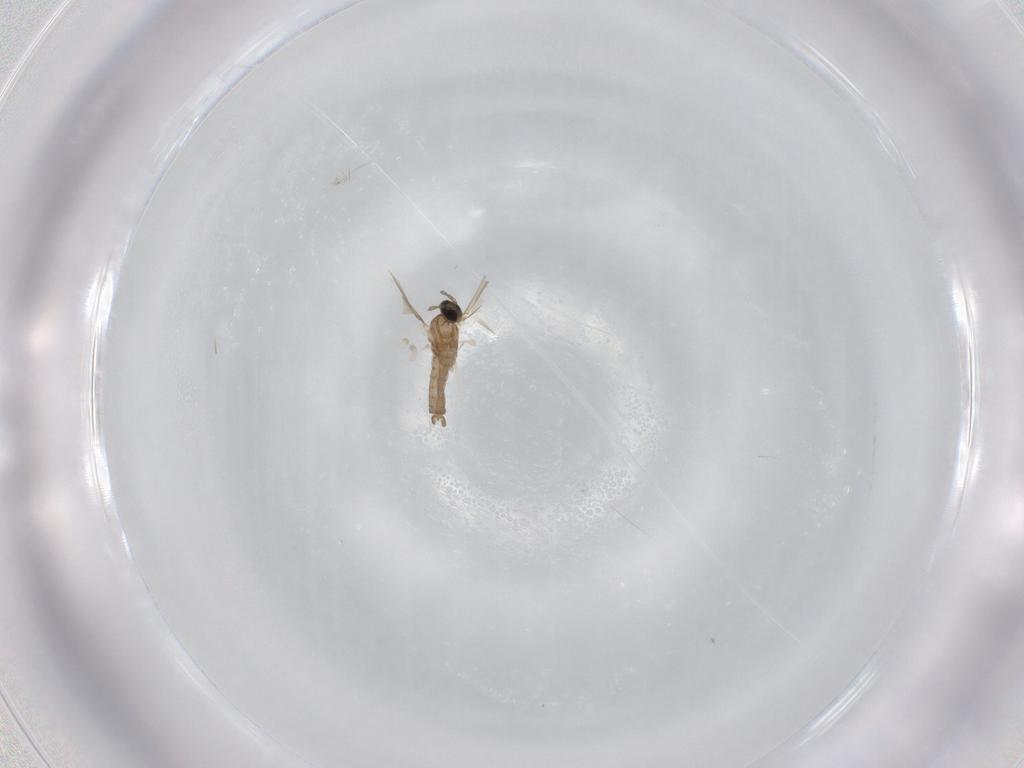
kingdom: Animalia
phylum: Arthropoda
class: Insecta
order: Diptera
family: Cecidomyiidae
